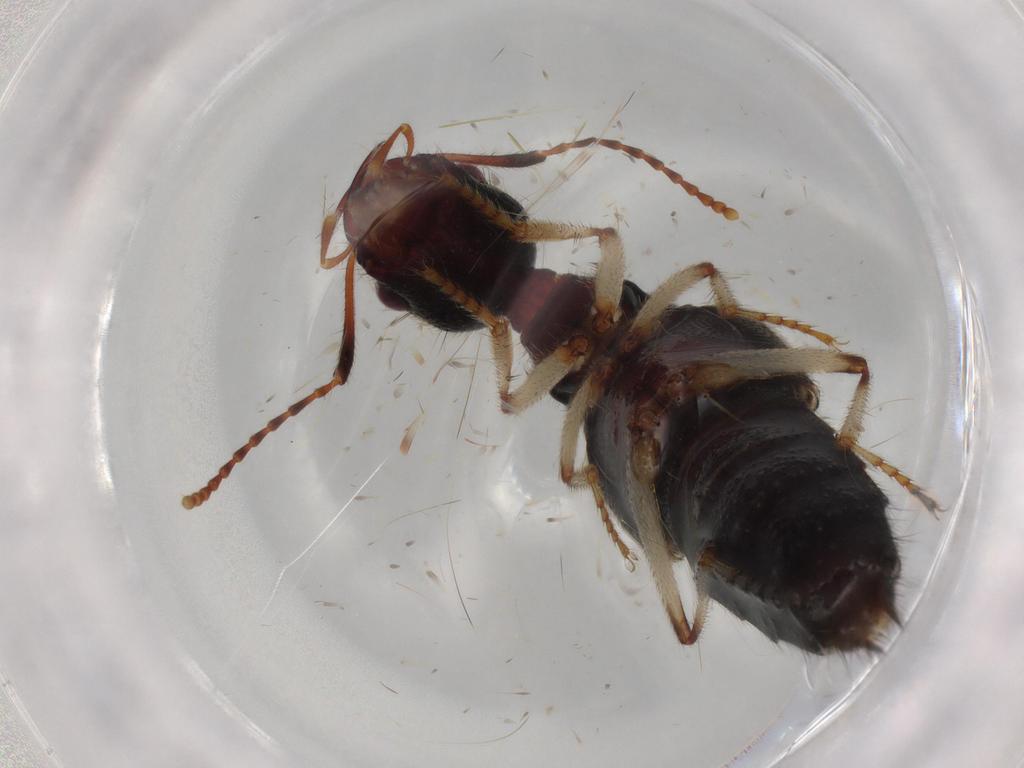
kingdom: Animalia
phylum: Arthropoda
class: Insecta
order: Coleoptera
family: Staphylinidae
